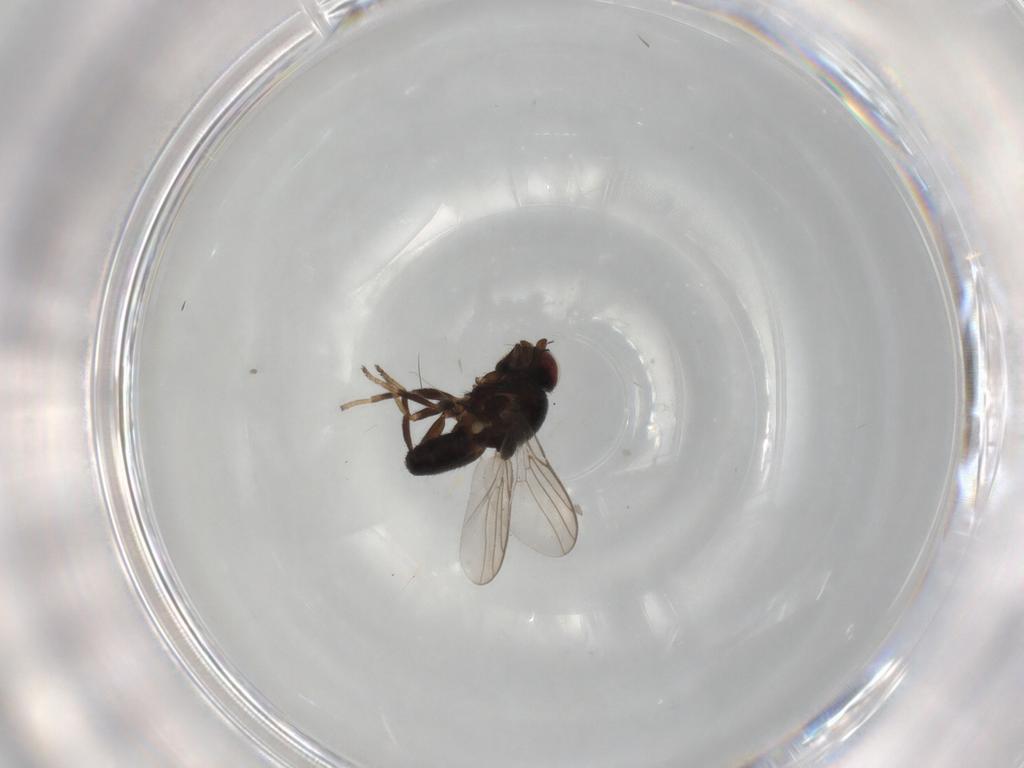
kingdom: Animalia
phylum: Arthropoda
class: Insecta
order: Diptera
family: Chloropidae
